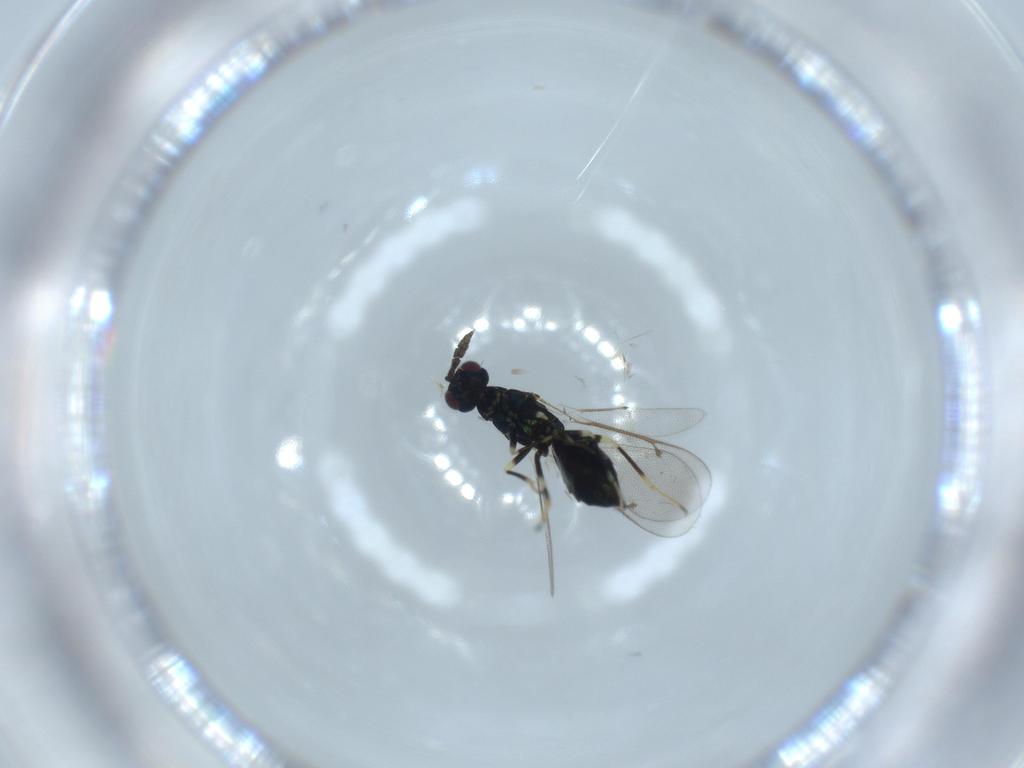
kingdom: Animalia
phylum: Arthropoda
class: Insecta
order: Hymenoptera
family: Eulophidae
